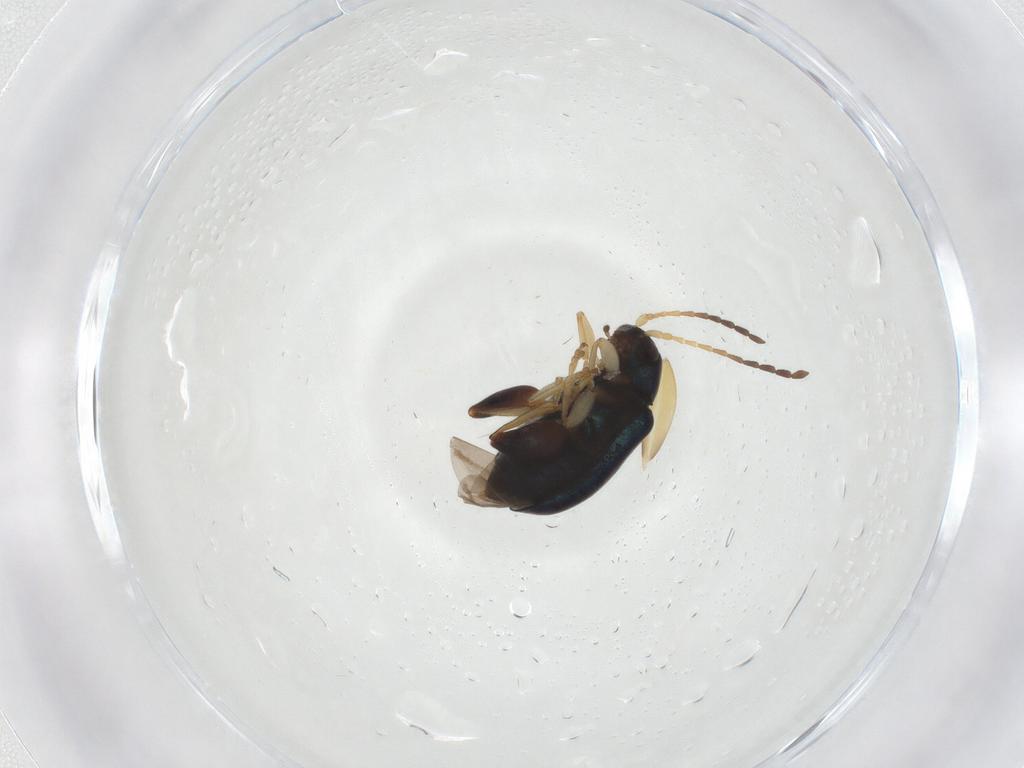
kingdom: Animalia
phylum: Arthropoda
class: Insecta
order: Coleoptera
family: Chrysomelidae
